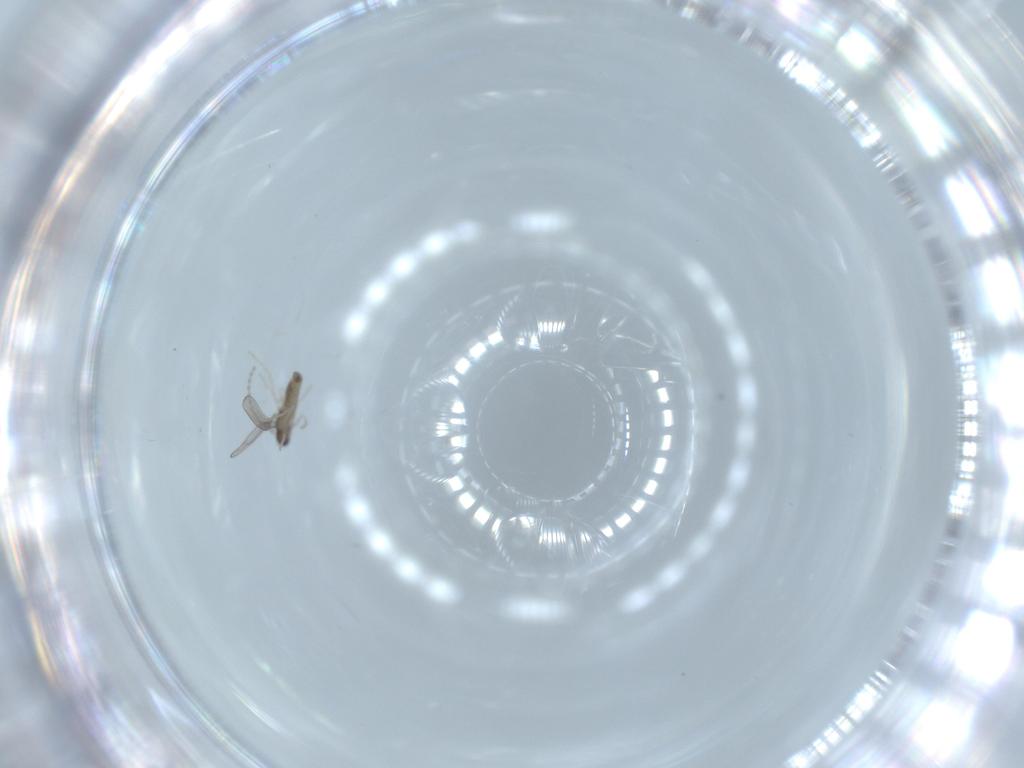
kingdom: Animalia
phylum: Arthropoda
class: Insecta
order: Diptera
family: Cecidomyiidae
